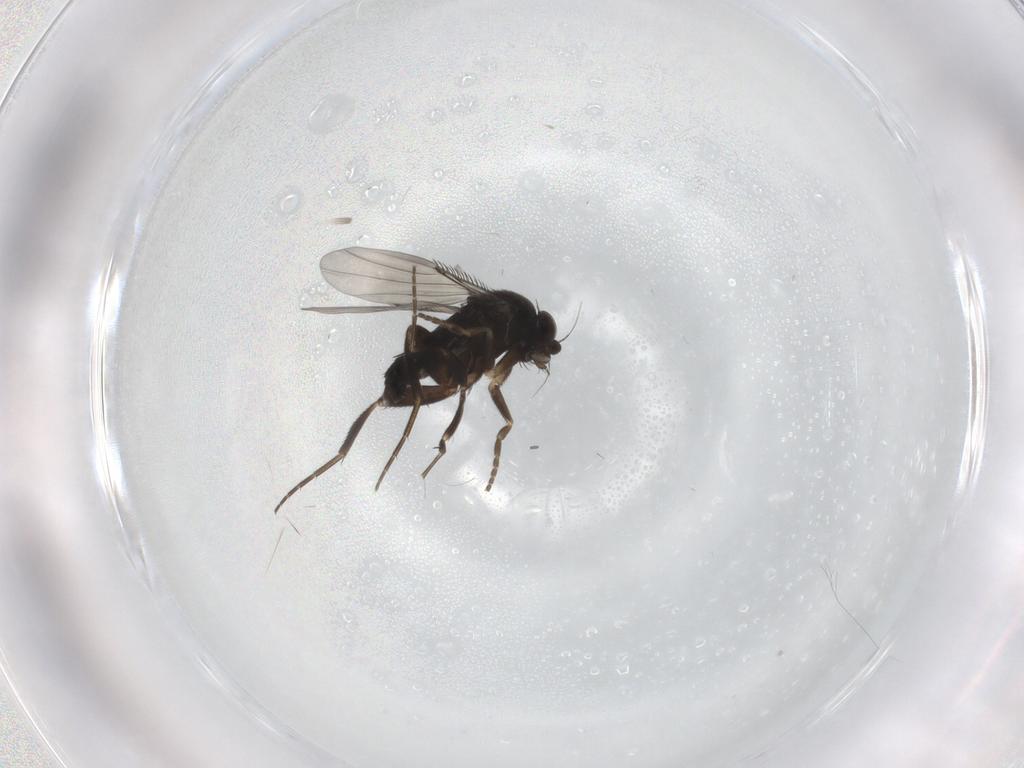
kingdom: Animalia
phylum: Arthropoda
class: Insecta
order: Diptera
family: Phoridae
